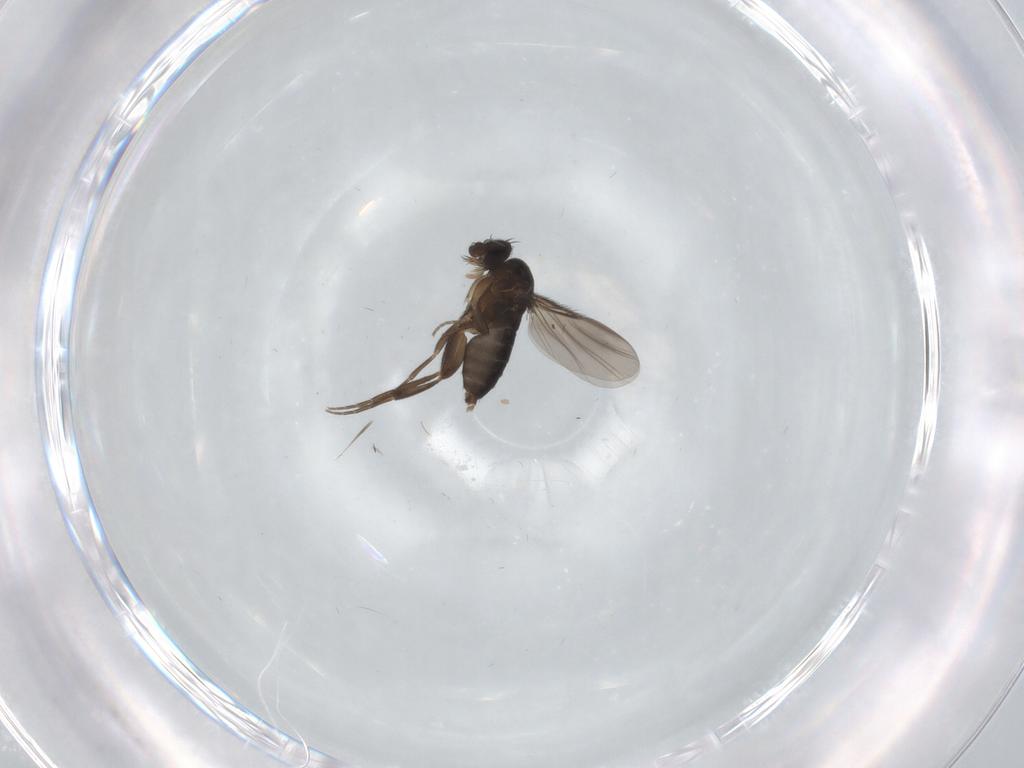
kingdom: Animalia
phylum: Arthropoda
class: Insecta
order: Diptera
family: Phoridae
